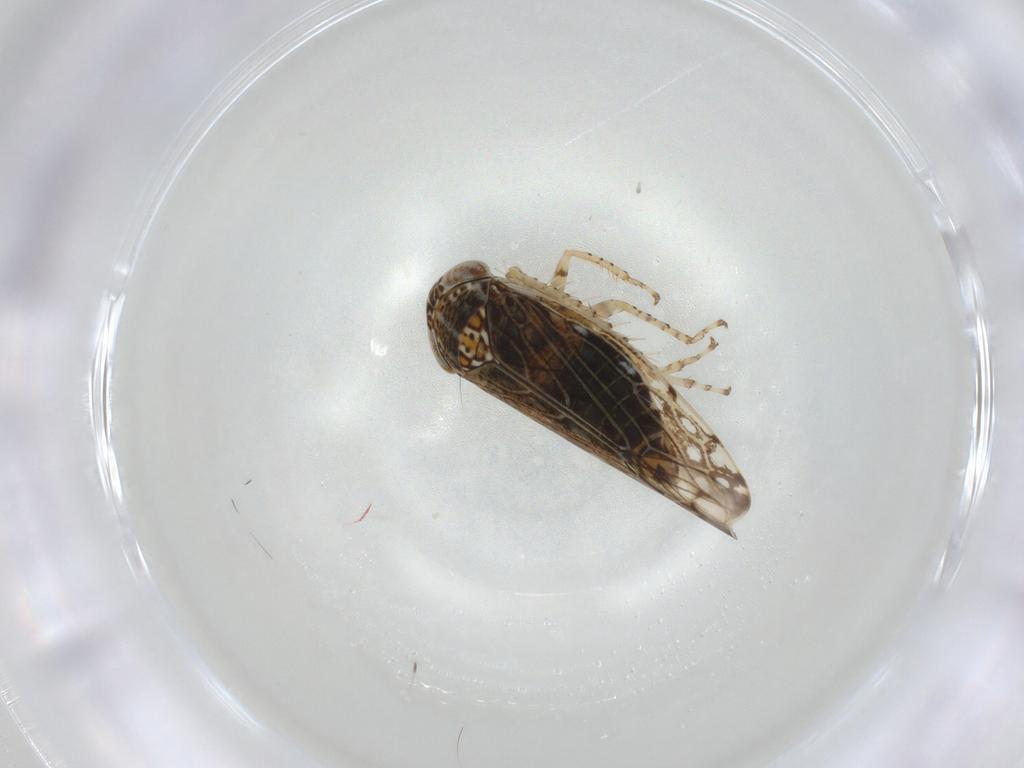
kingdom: Animalia
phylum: Arthropoda
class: Insecta
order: Hemiptera
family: Cicadellidae
